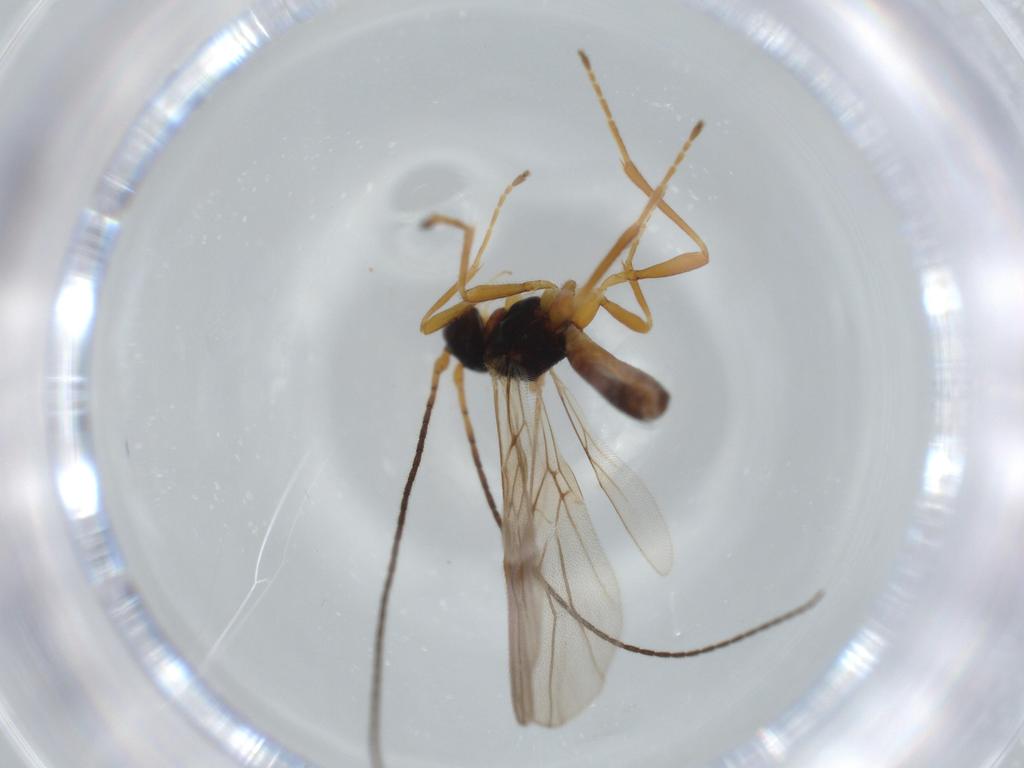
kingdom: Animalia
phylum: Arthropoda
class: Insecta
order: Hymenoptera
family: Braconidae
